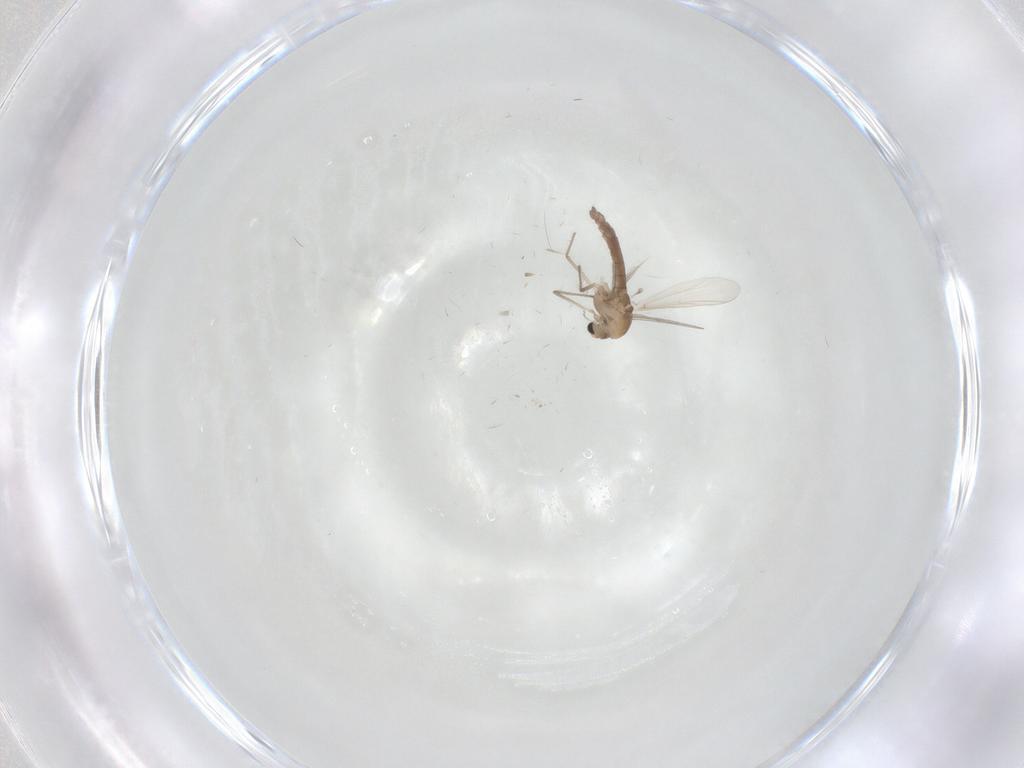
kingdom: Animalia
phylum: Arthropoda
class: Insecta
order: Diptera
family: Chironomidae
